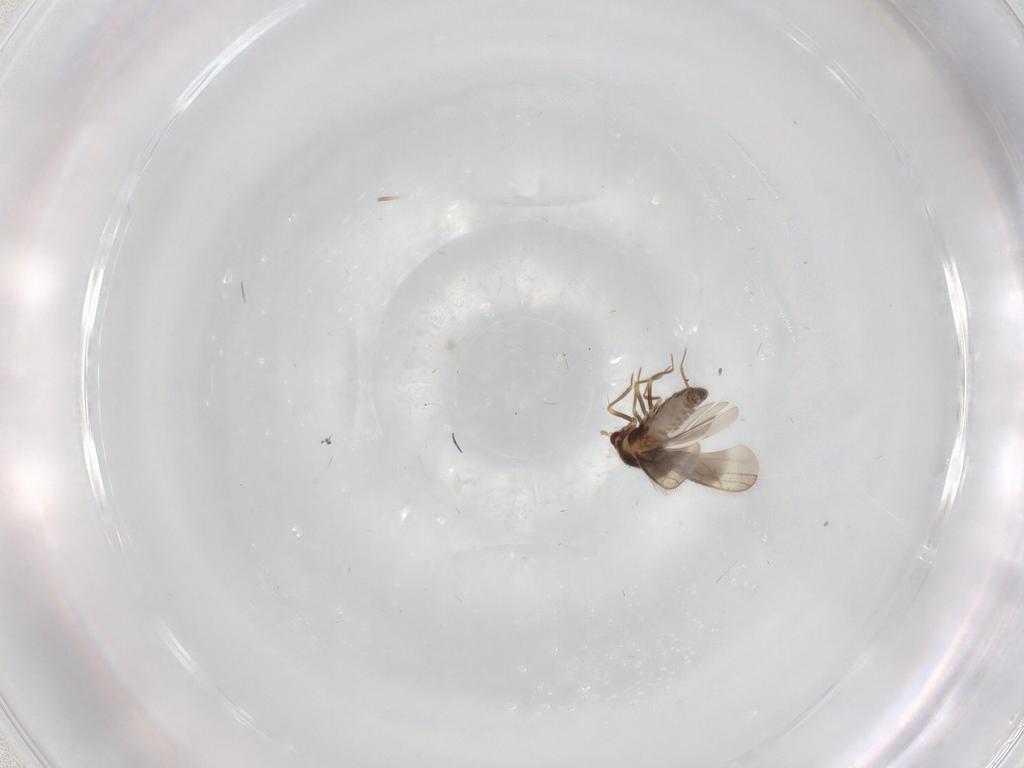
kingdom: Animalia
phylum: Arthropoda
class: Insecta
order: Hemiptera
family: Schizopteridae
